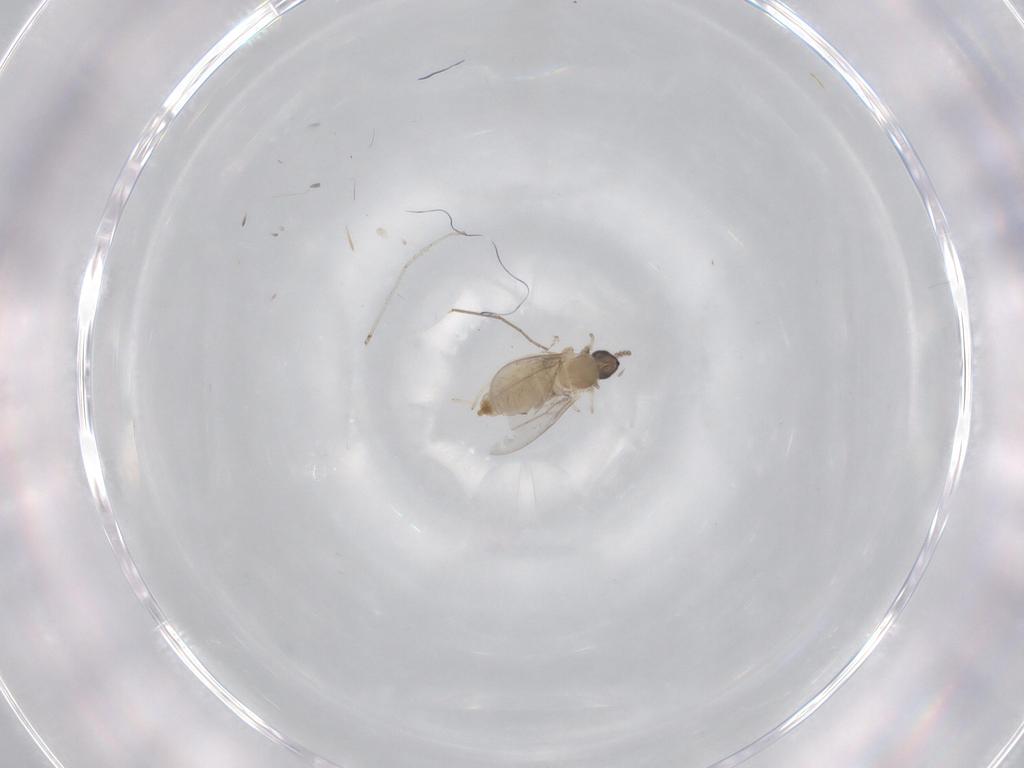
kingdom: Animalia
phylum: Arthropoda
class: Insecta
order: Diptera
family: Cecidomyiidae
